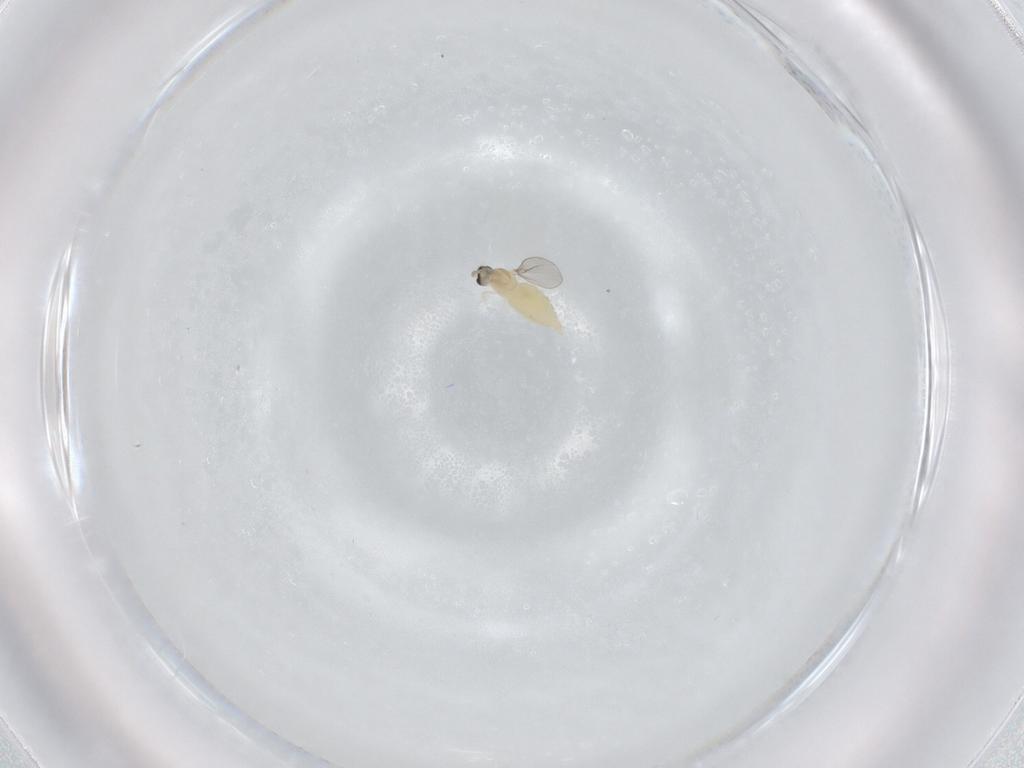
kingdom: Animalia
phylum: Arthropoda
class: Insecta
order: Diptera
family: Cecidomyiidae
